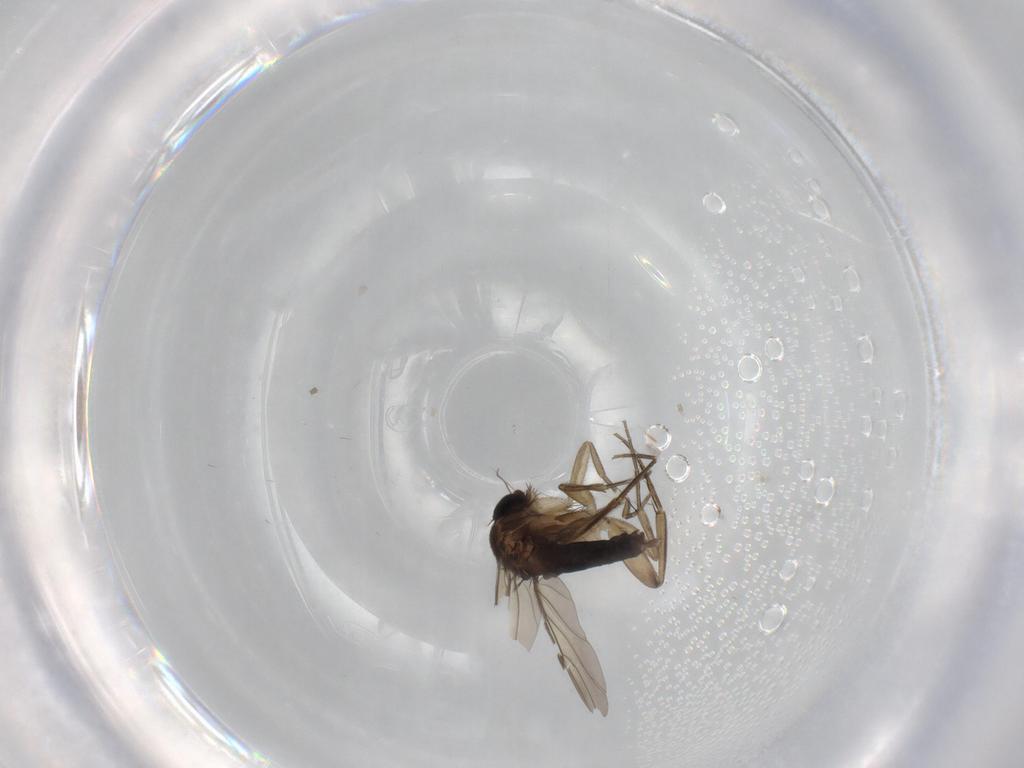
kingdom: Animalia
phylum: Arthropoda
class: Insecta
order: Diptera
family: Phoridae
